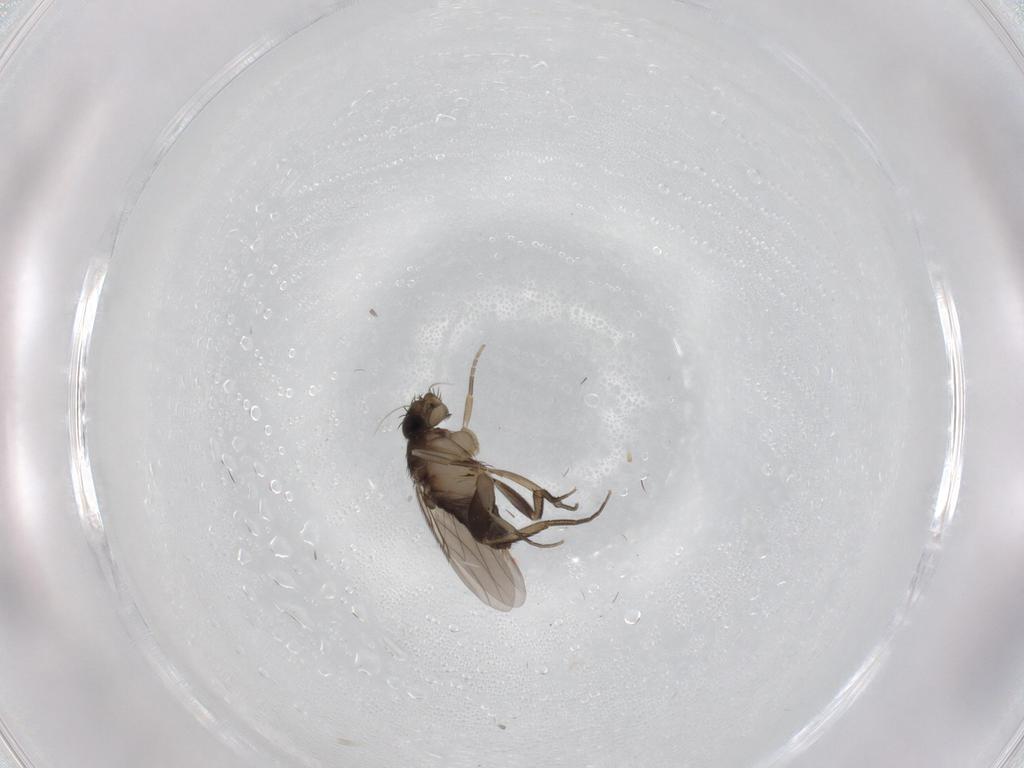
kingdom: Animalia
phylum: Arthropoda
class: Insecta
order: Diptera
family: Phoridae
